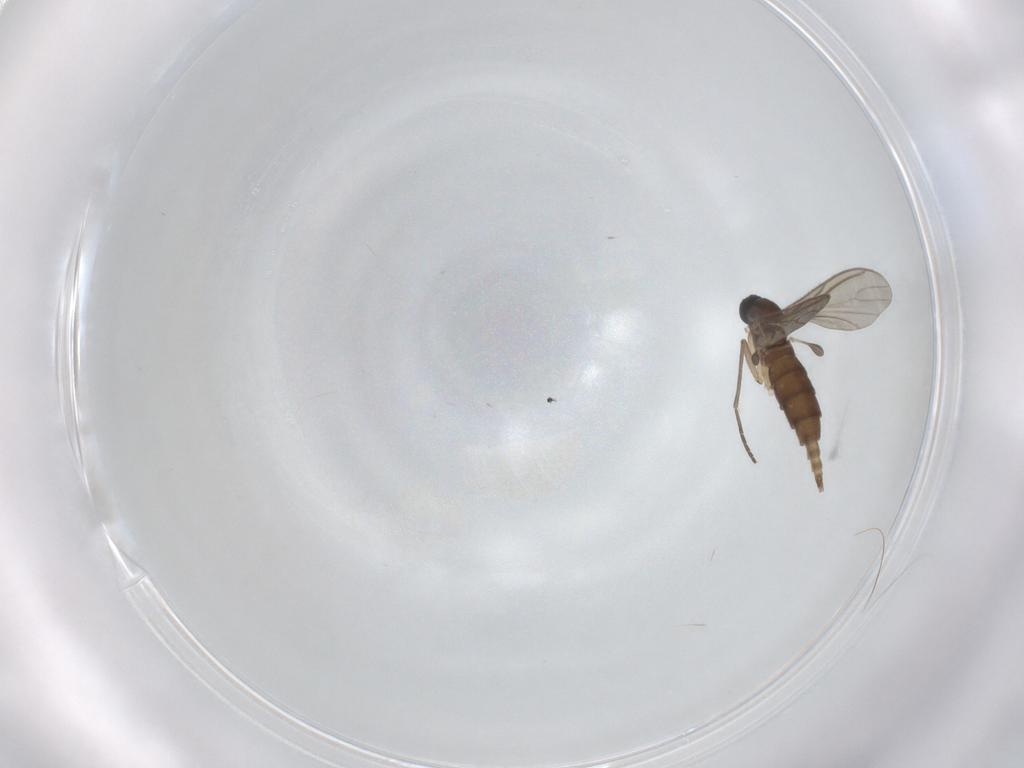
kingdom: Animalia
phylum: Arthropoda
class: Insecta
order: Diptera
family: Sciaridae
